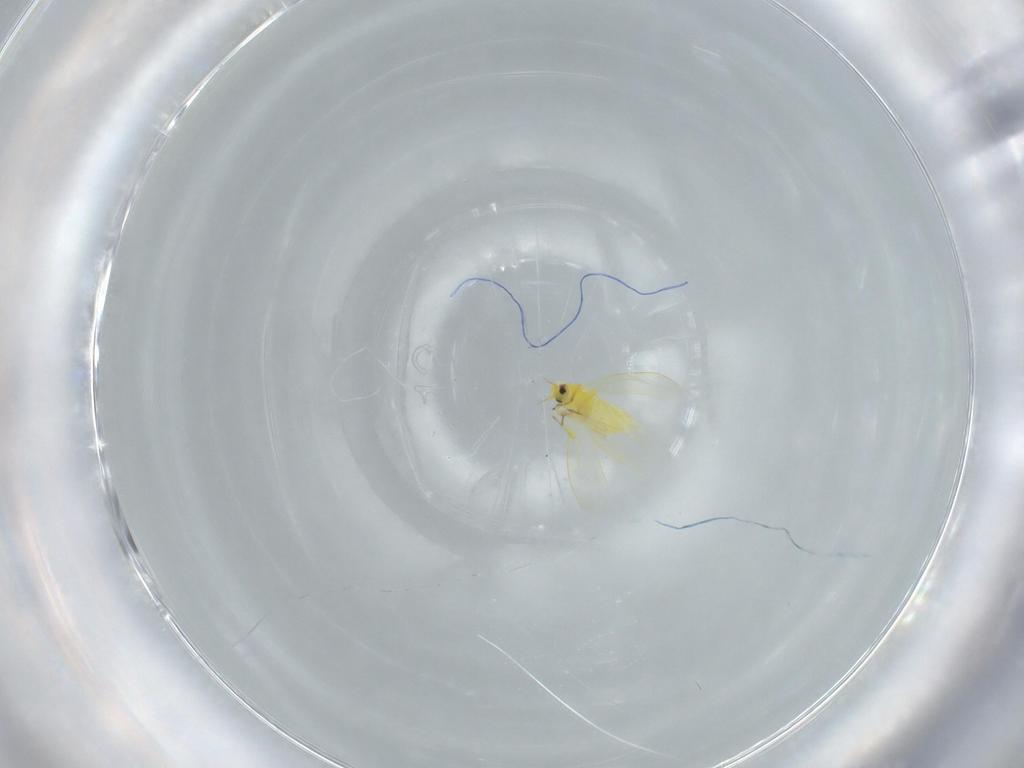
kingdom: Animalia
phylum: Arthropoda
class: Insecta
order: Hemiptera
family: Aleyrodidae
